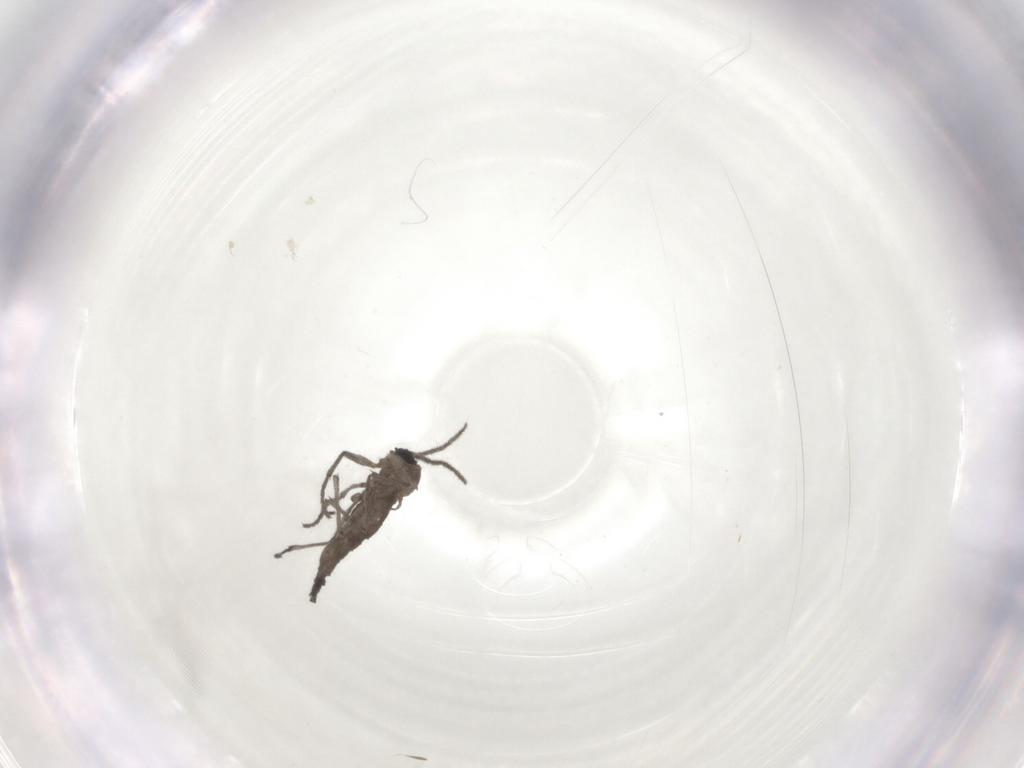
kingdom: Animalia
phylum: Arthropoda
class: Insecta
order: Diptera
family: Sciaridae
